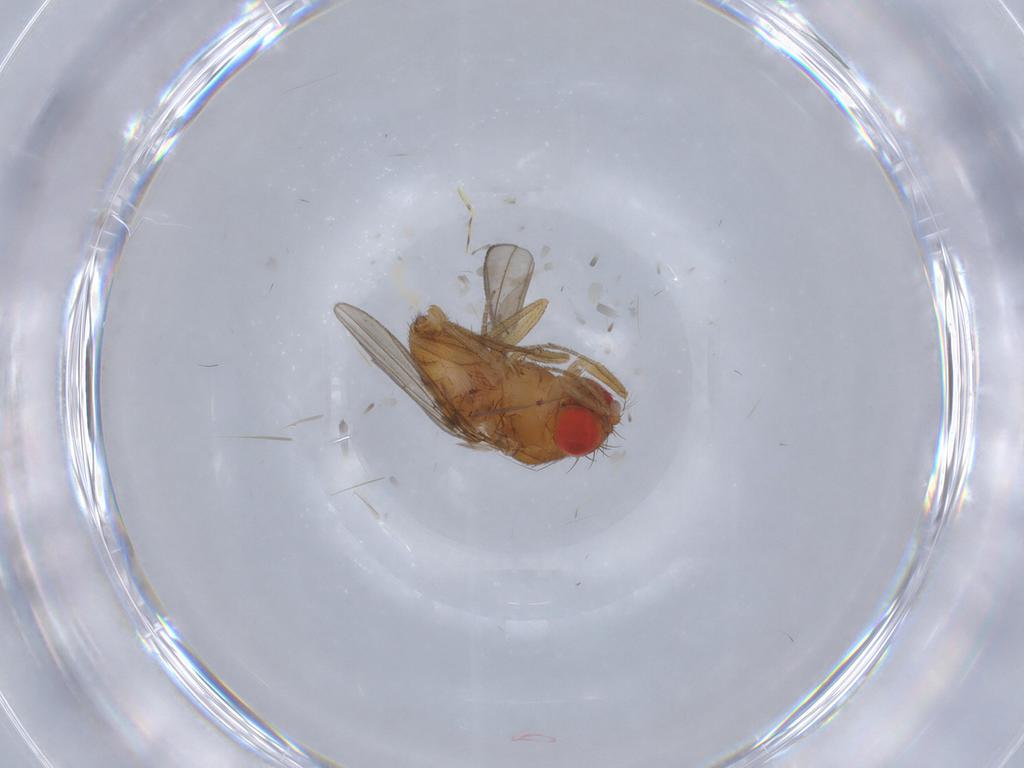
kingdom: Animalia
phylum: Arthropoda
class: Insecta
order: Diptera
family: Drosophilidae
